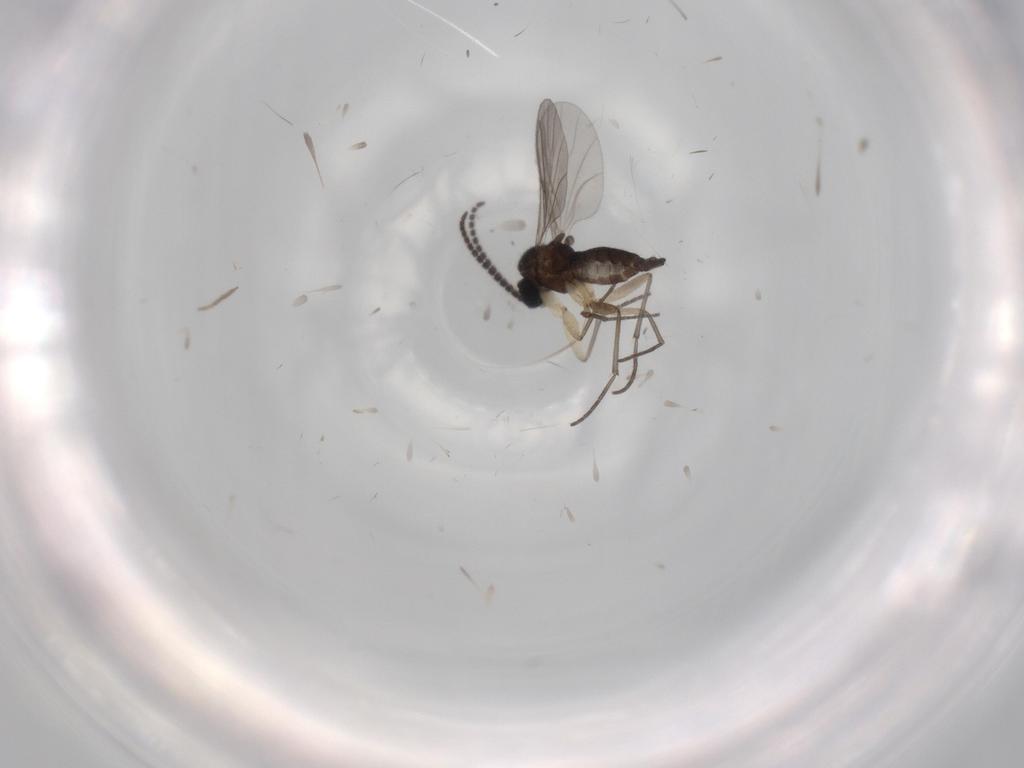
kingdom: Animalia
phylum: Arthropoda
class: Insecta
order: Diptera
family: Sciaridae
